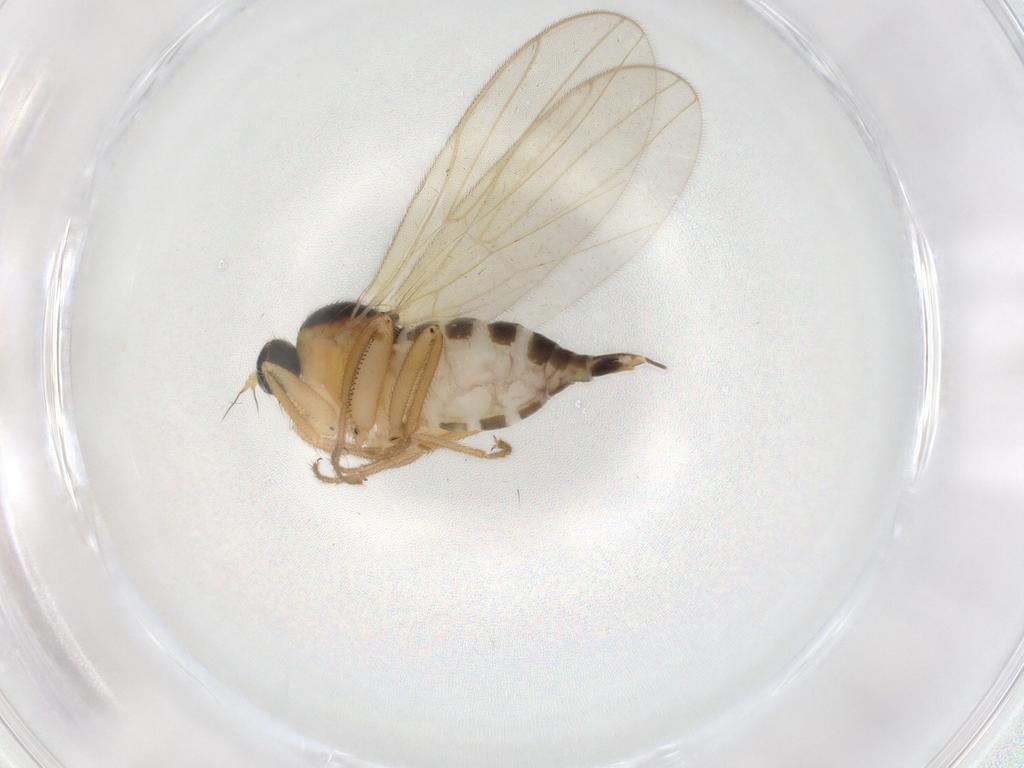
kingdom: Animalia
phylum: Arthropoda
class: Insecta
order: Diptera
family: Hybotidae
